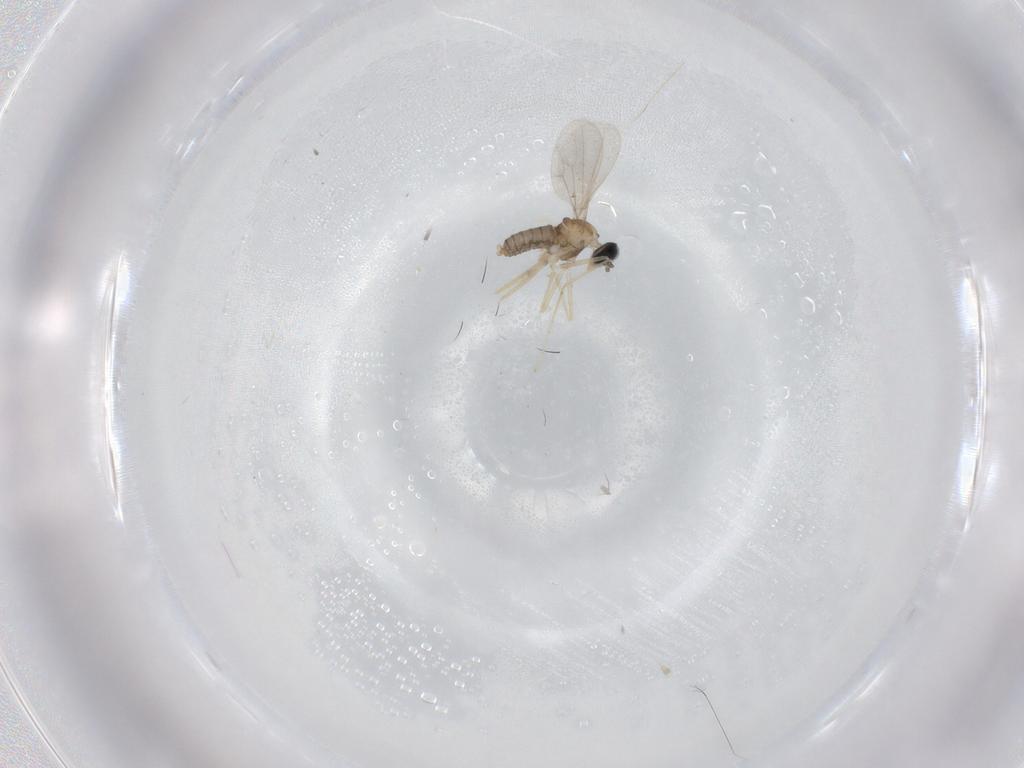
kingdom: Animalia
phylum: Arthropoda
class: Insecta
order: Diptera
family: Cecidomyiidae
